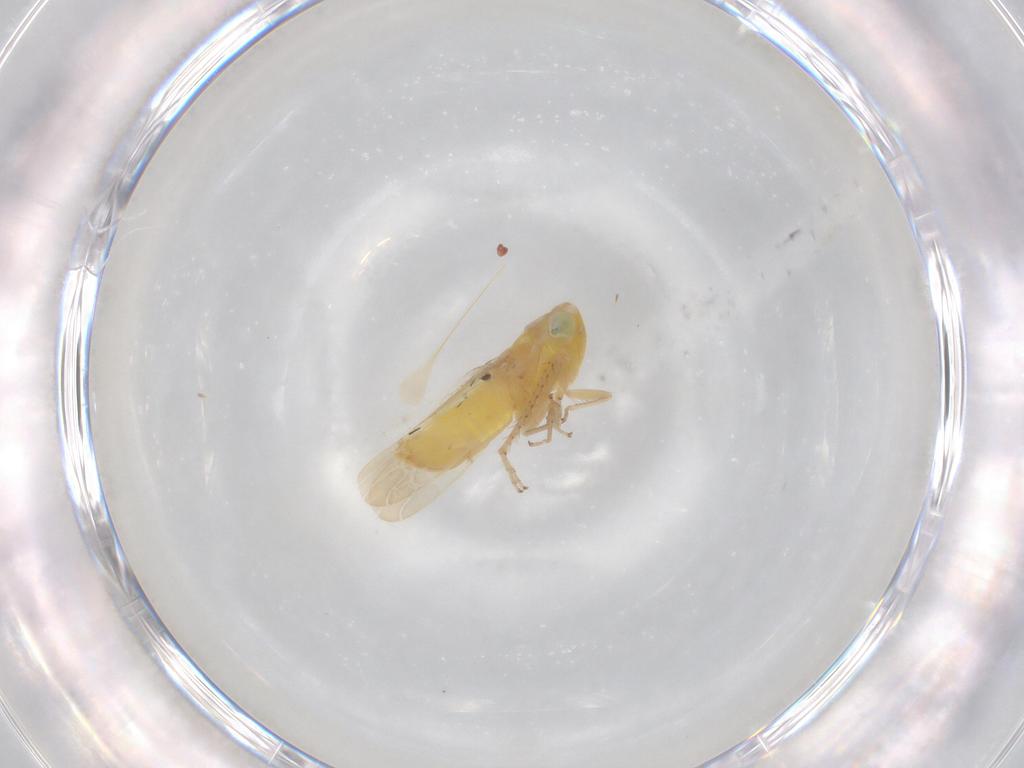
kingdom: Animalia
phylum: Arthropoda
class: Insecta
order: Hemiptera
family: Cicadellidae
